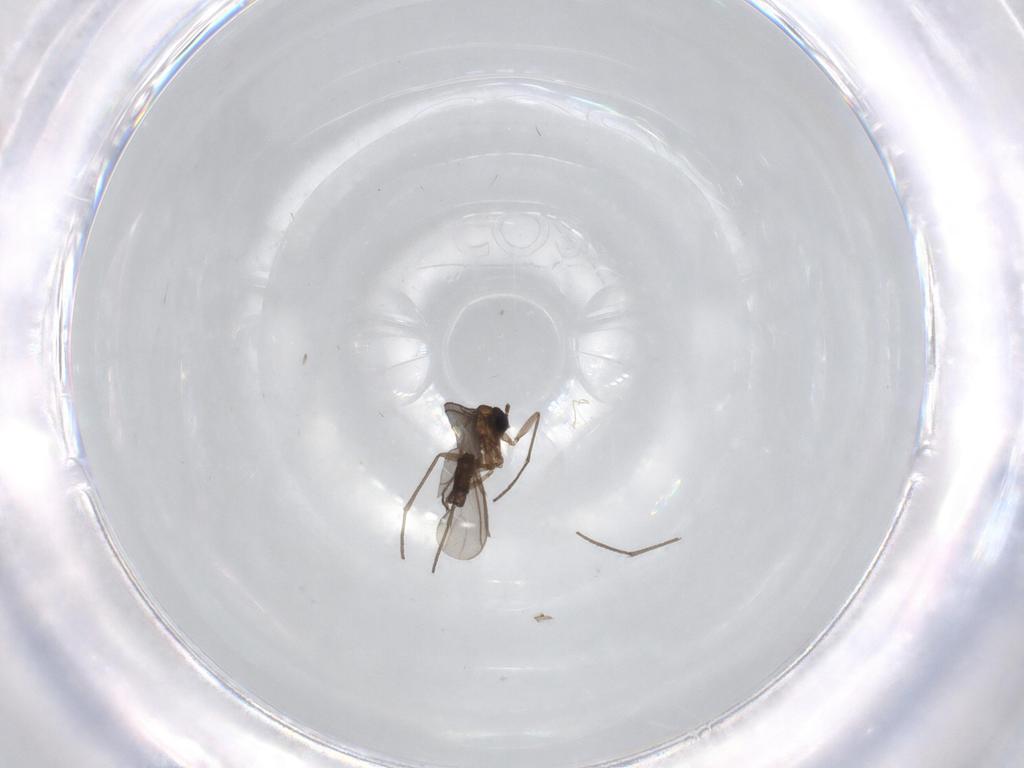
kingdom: Animalia
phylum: Arthropoda
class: Insecta
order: Diptera
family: Sciaridae
